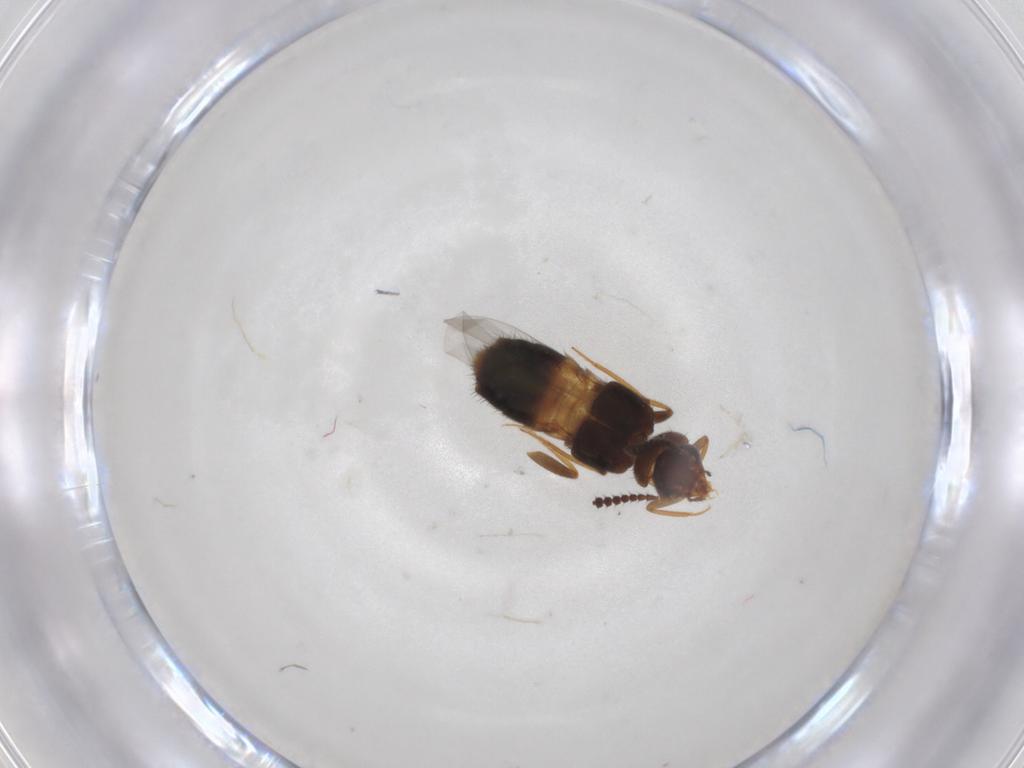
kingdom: Animalia
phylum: Arthropoda
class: Insecta
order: Coleoptera
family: Staphylinidae
